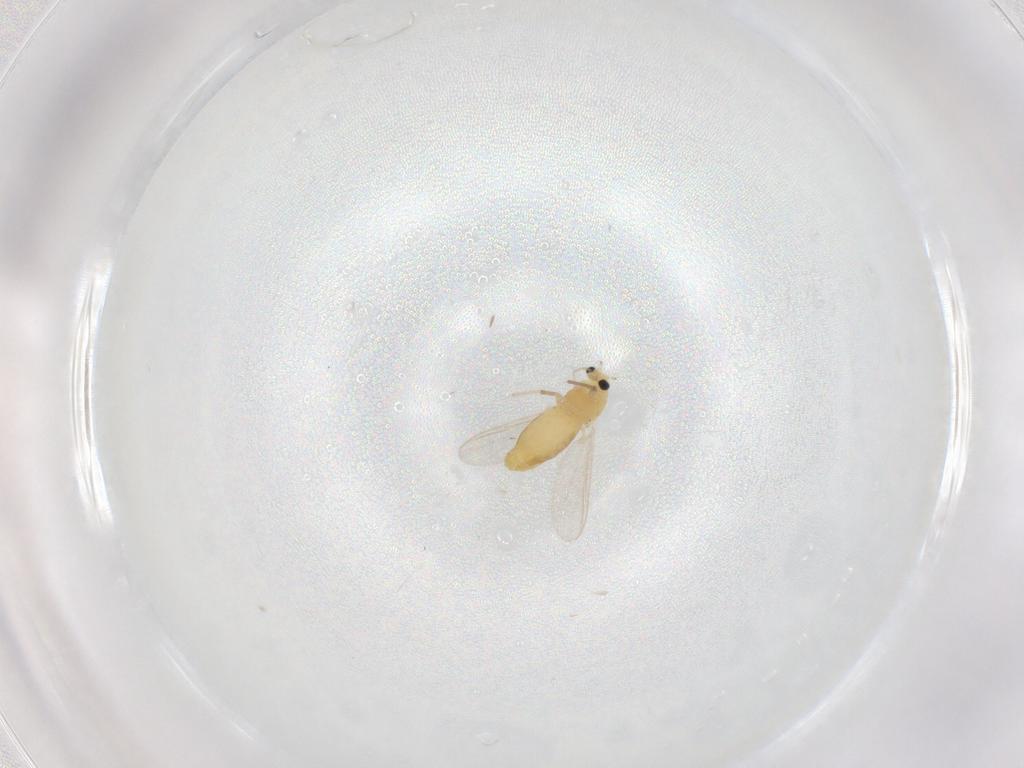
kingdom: Animalia
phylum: Arthropoda
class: Insecta
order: Diptera
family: Chironomidae
